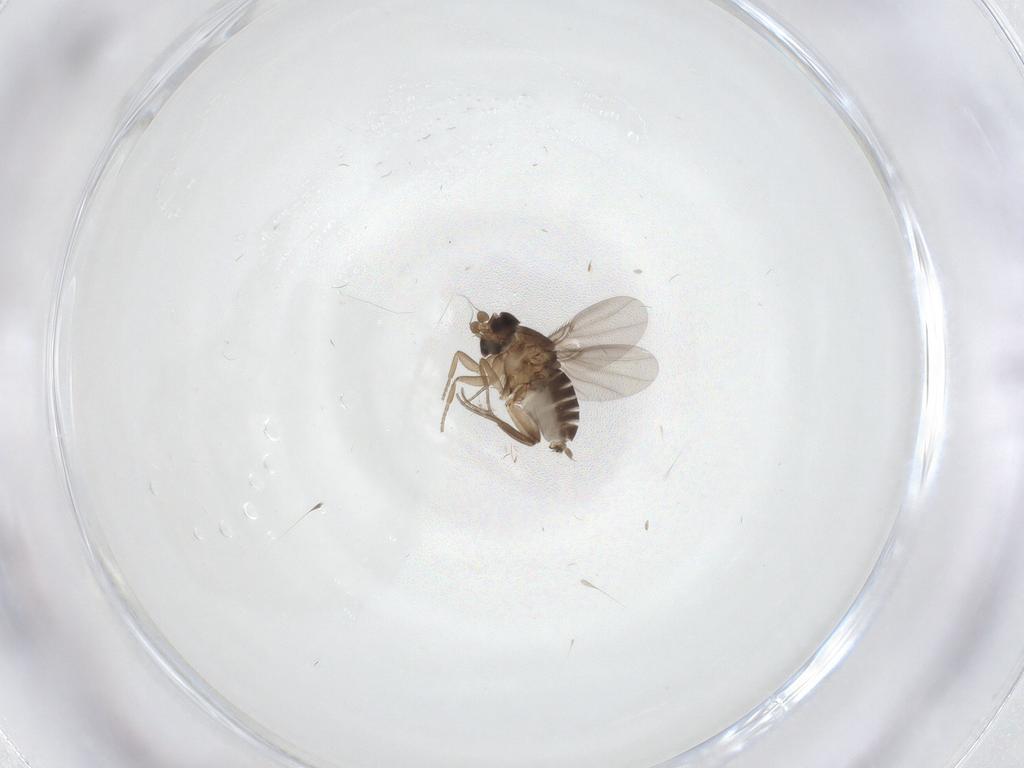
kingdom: Animalia
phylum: Arthropoda
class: Insecta
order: Diptera
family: Phoridae
